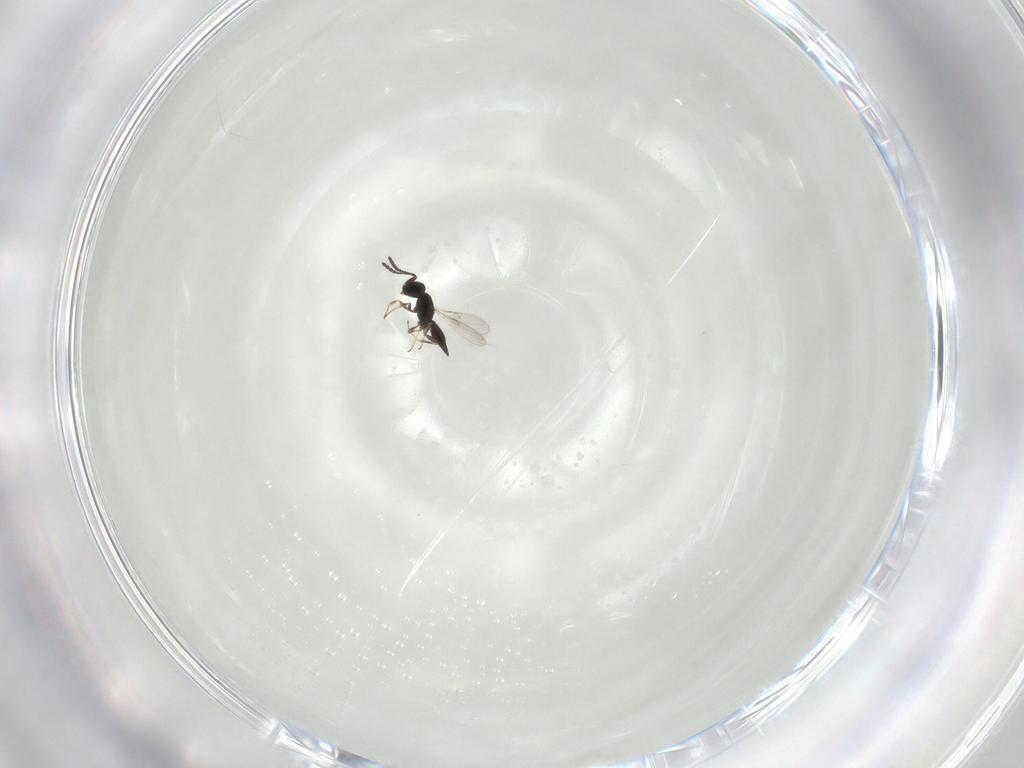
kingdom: Animalia
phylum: Arthropoda
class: Insecta
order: Hymenoptera
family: Scelionidae
